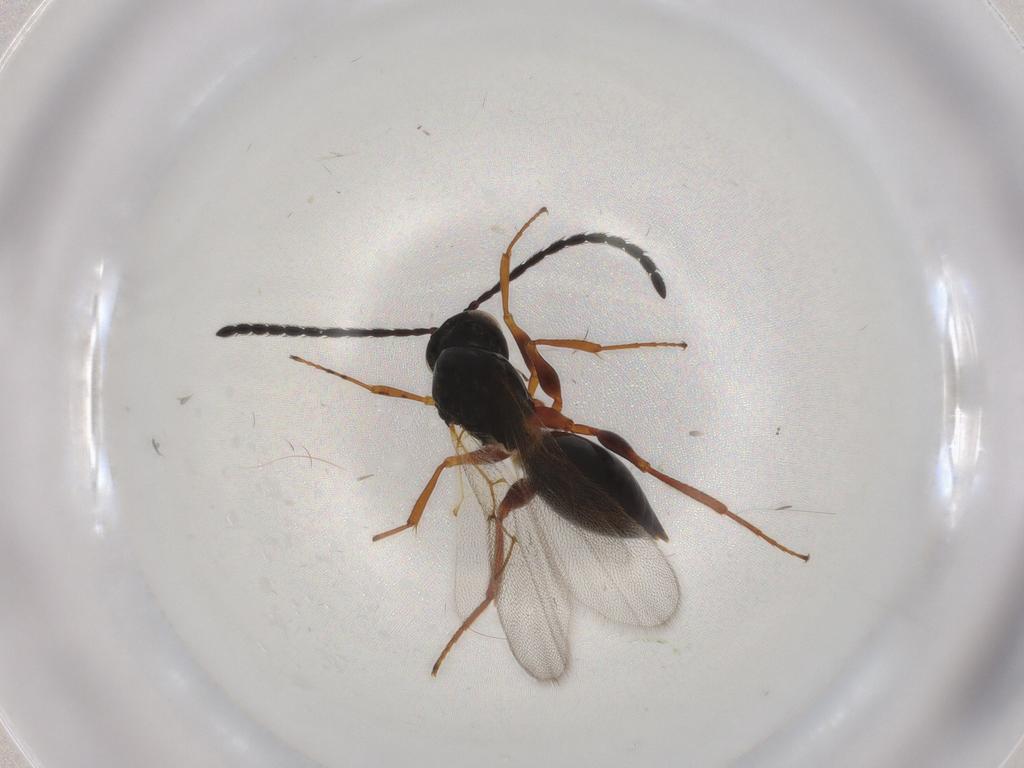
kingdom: Animalia
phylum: Arthropoda
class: Insecta
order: Hymenoptera
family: Figitidae
